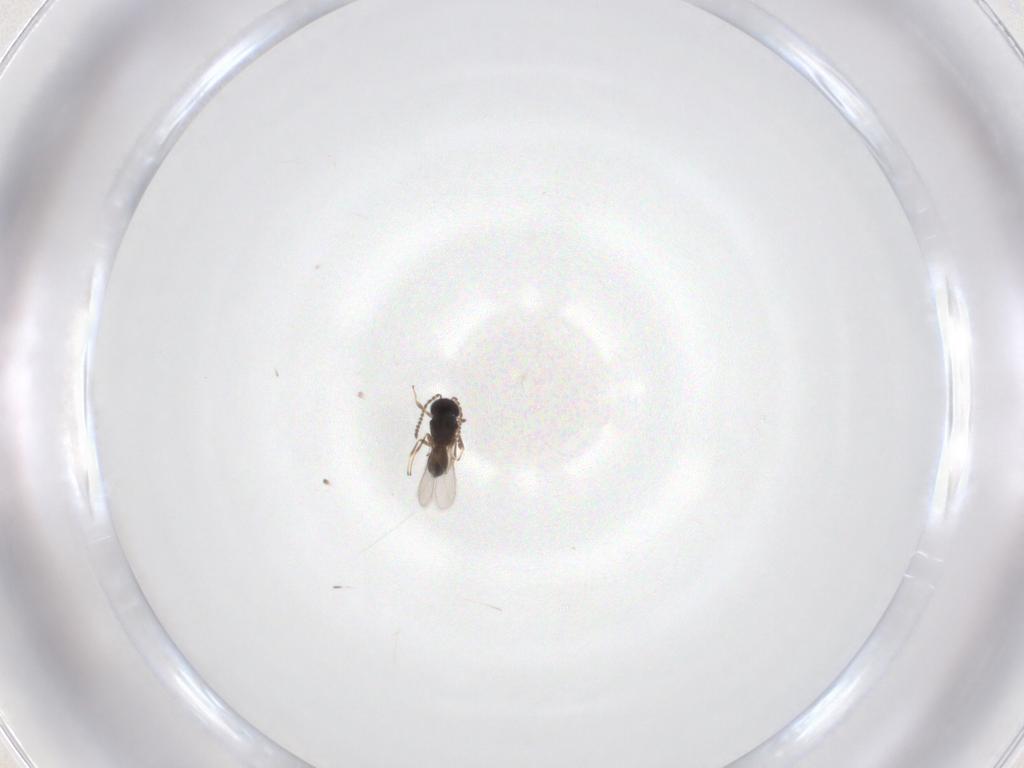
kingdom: Animalia
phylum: Arthropoda
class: Insecta
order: Hymenoptera
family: Scelionidae
